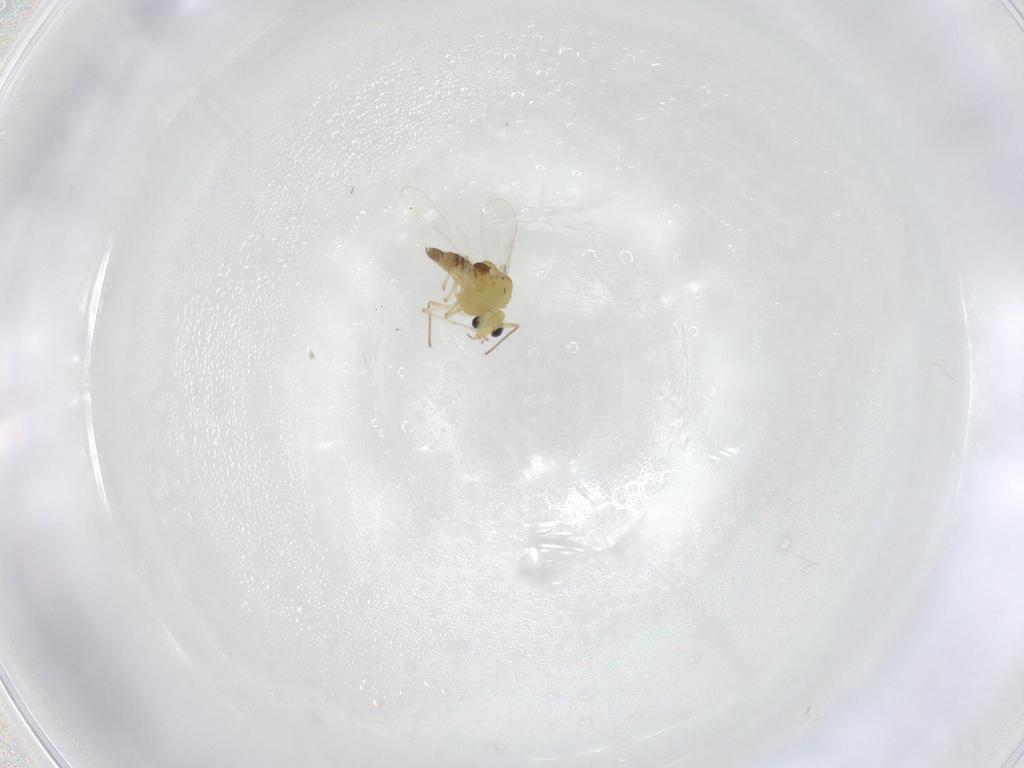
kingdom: Animalia
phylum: Arthropoda
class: Insecta
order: Diptera
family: Chironomidae
